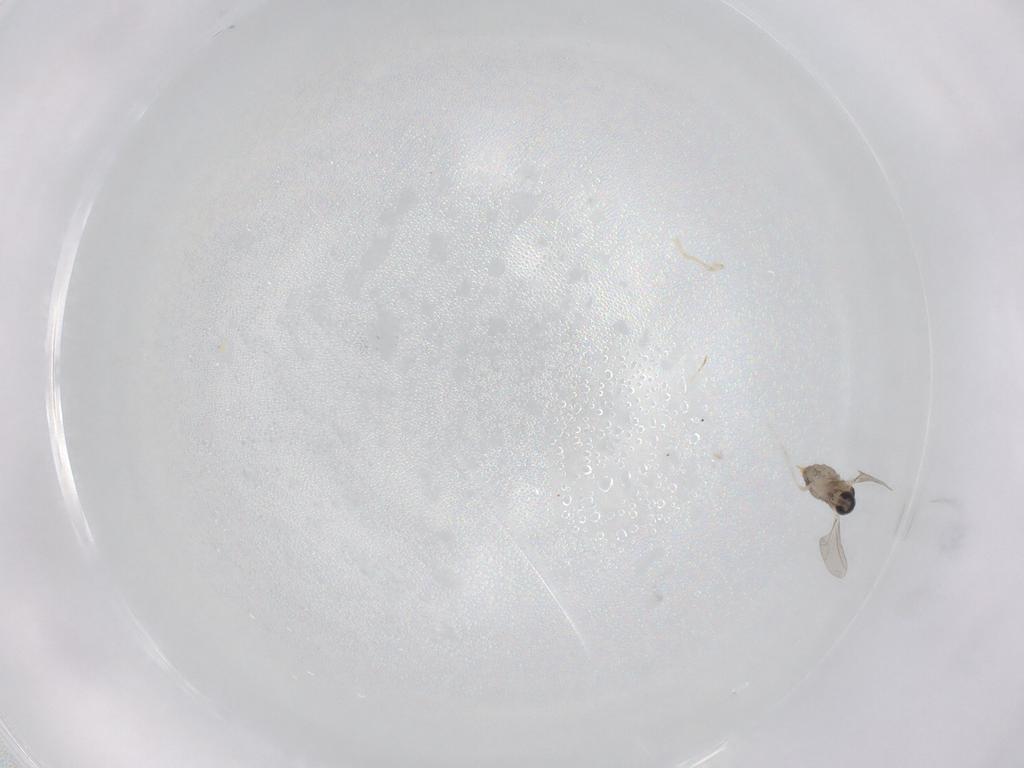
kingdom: Animalia
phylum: Arthropoda
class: Insecta
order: Diptera
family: Cecidomyiidae
